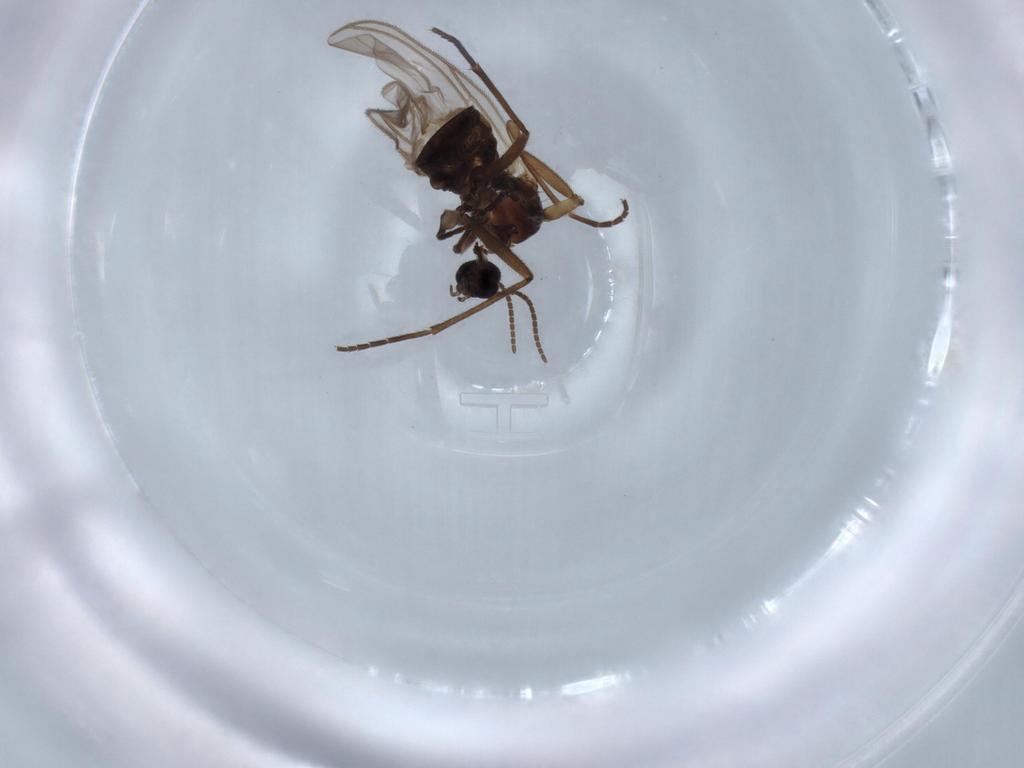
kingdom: Animalia
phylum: Arthropoda
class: Insecta
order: Diptera
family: Sciaridae
